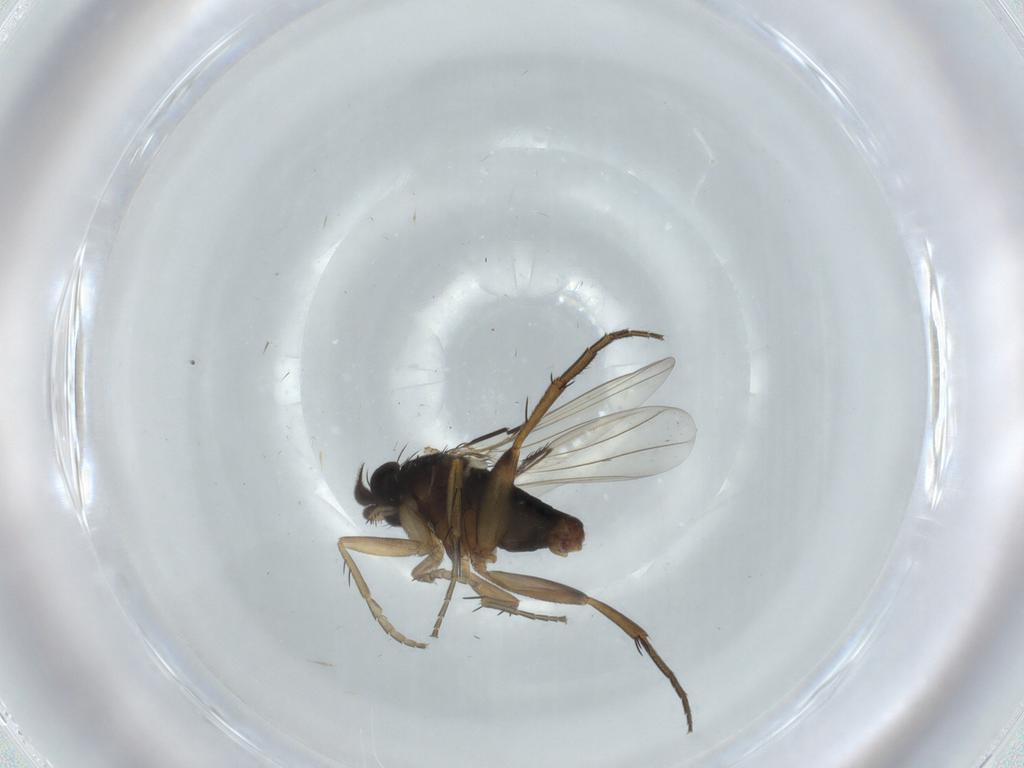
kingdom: Animalia
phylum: Arthropoda
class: Insecta
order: Diptera
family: Phoridae
